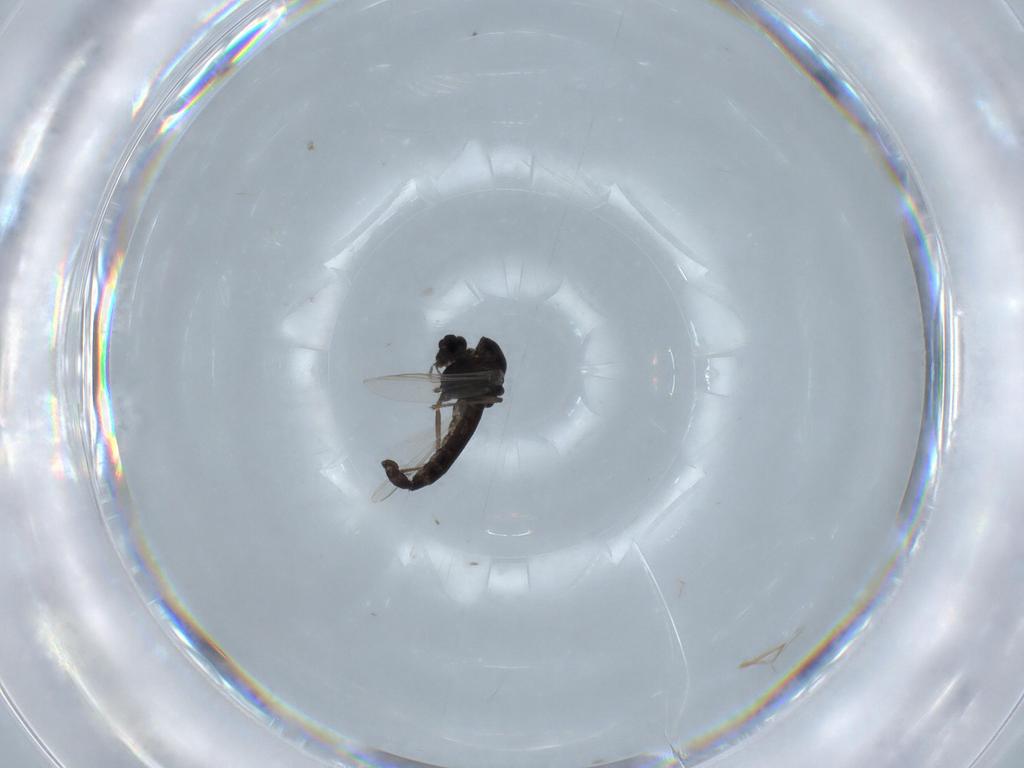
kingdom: Animalia
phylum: Arthropoda
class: Insecta
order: Diptera
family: Chironomidae
